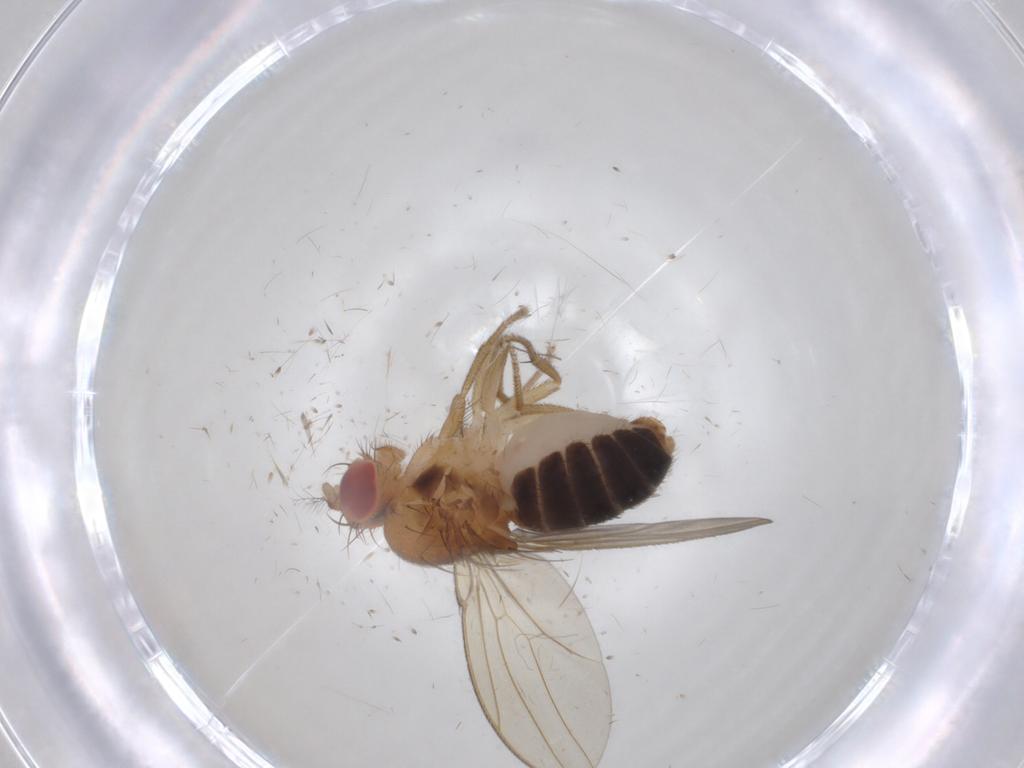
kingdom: Animalia
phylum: Arthropoda
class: Insecta
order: Diptera
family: Drosophilidae
